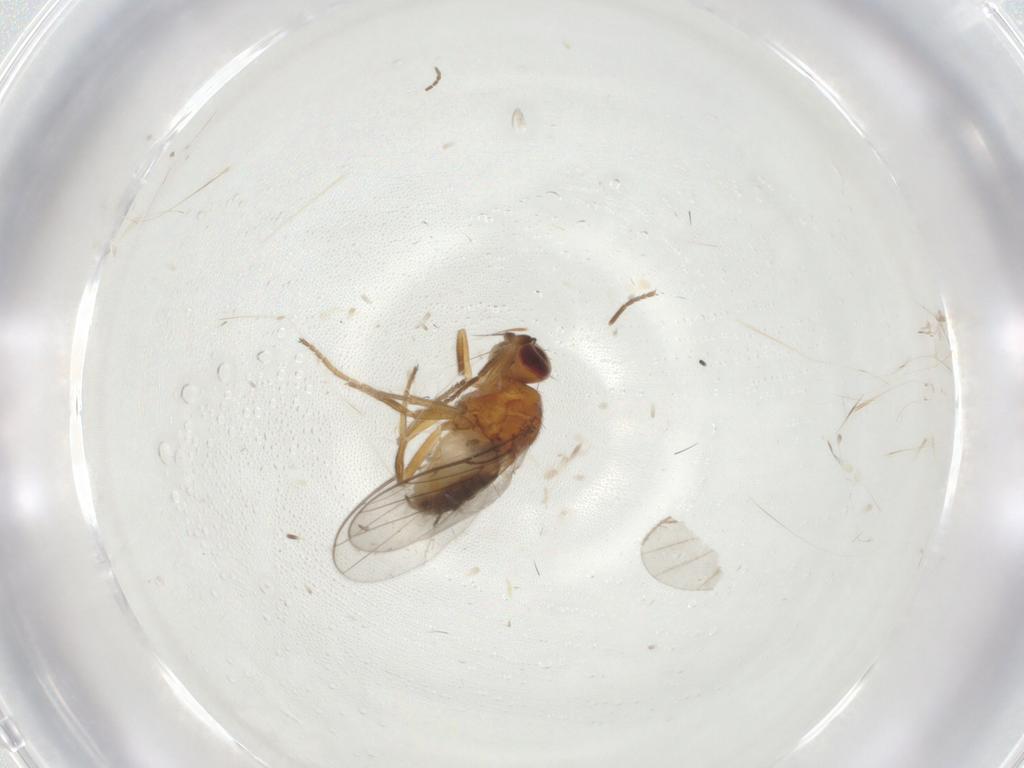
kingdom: Animalia
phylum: Arthropoda
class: Insecta
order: Diptera
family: Chloropidae
